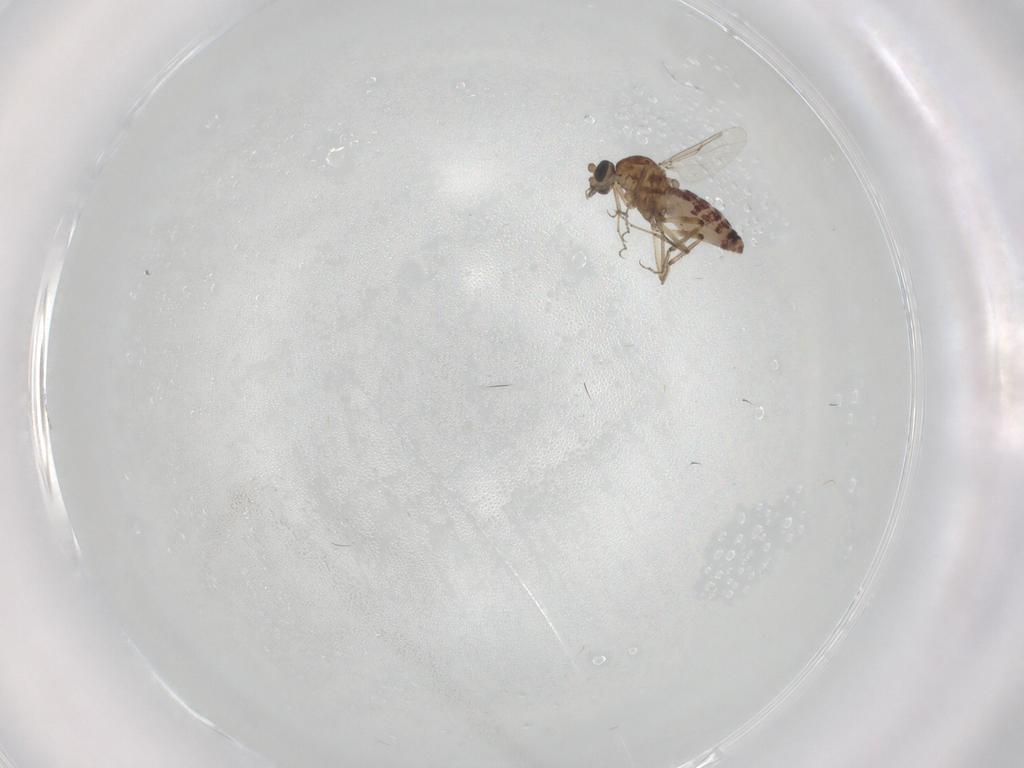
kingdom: Animalia
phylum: Arthropoda
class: Insecta
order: Diptera
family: Ceratopogonidae
